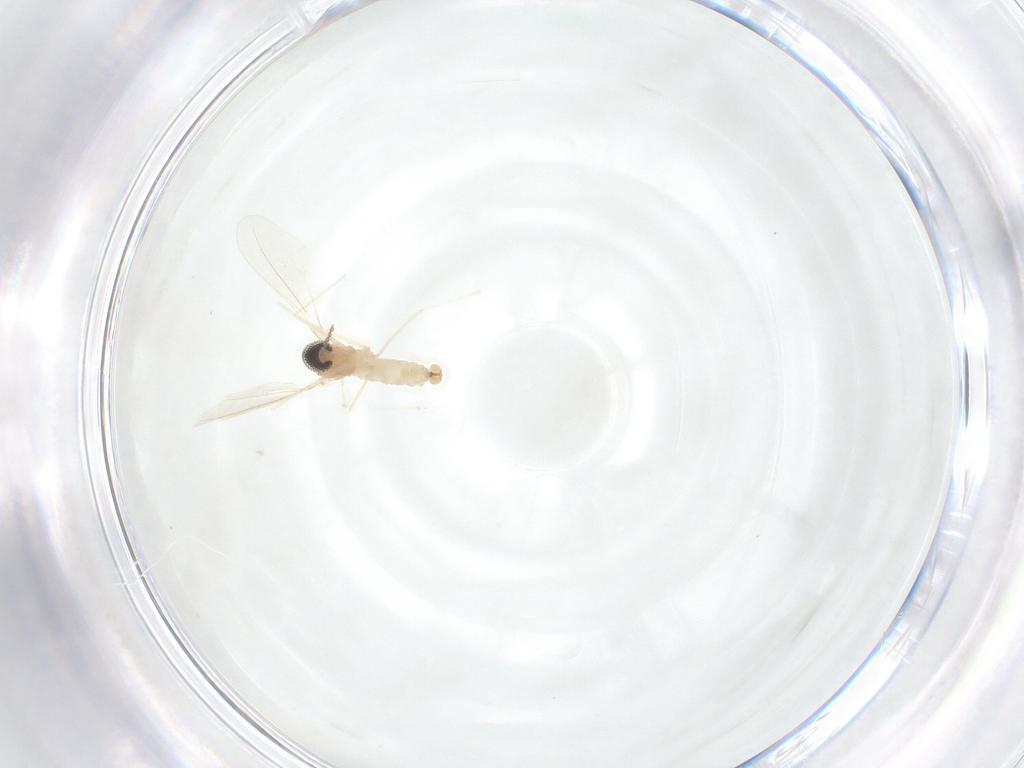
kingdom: Animalia
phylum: Arthropoda
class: Insecta
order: Diptera
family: Cecidomyiidae
